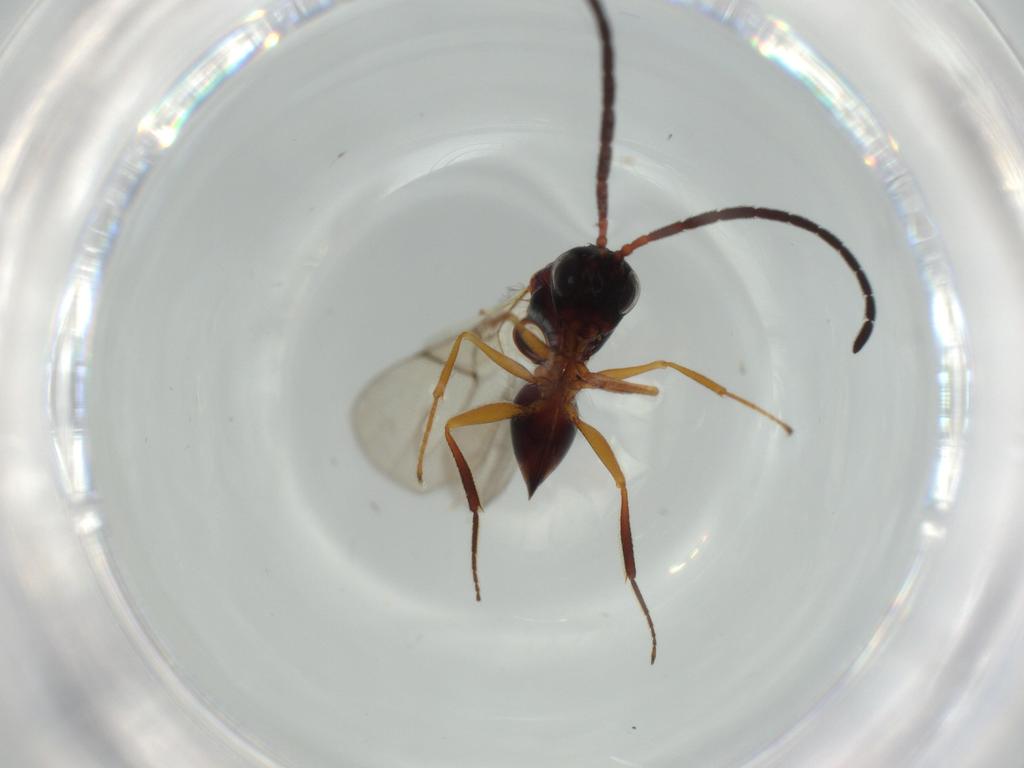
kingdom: Animalia
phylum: Arthropoda
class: Insecta
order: Hymenoptera
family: Figitidae
